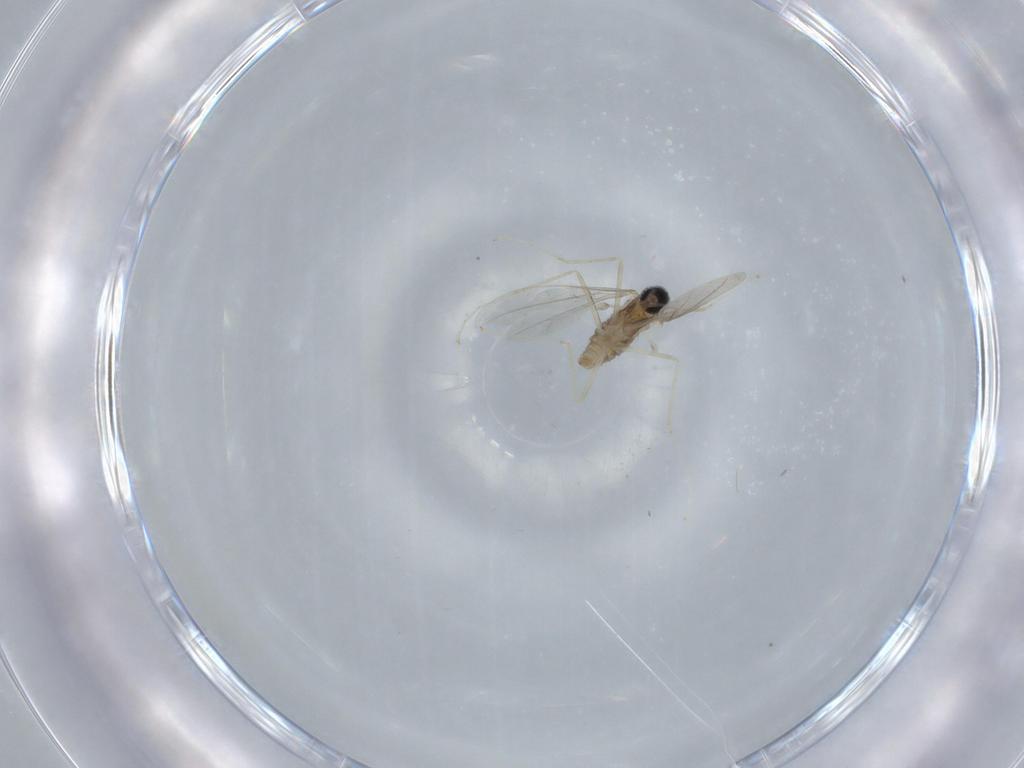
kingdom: Animalia
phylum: Arthropoda
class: Insecta
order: Diptera
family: Cecidomyiidae
